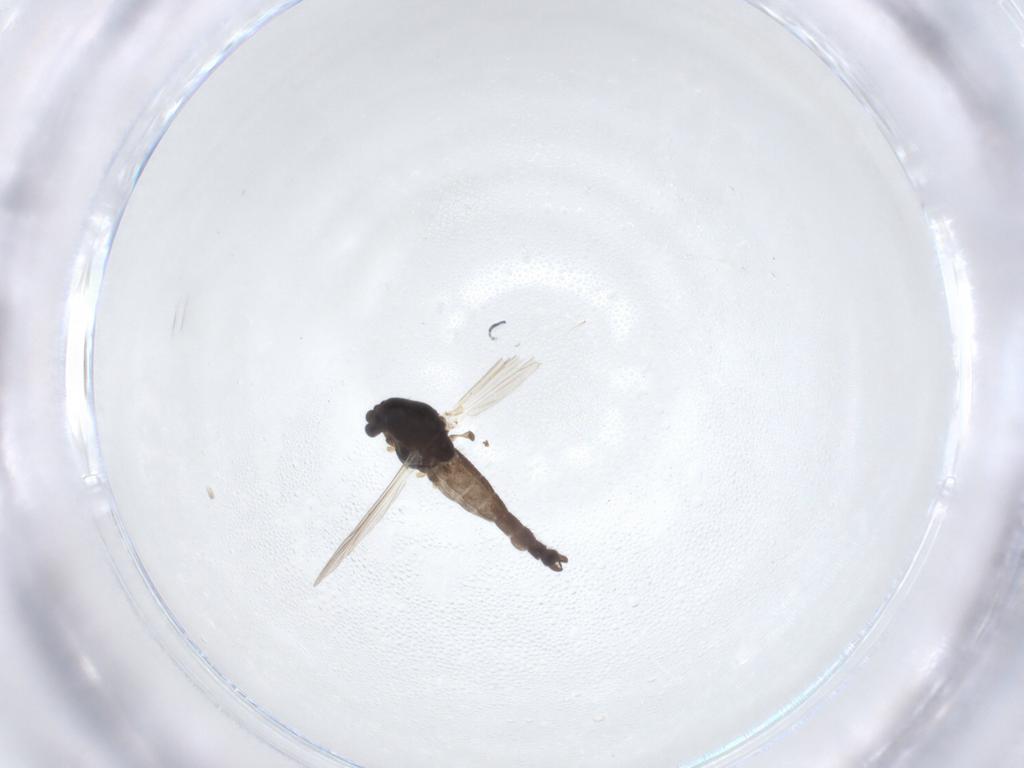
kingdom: Animalia
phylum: Arthropoda
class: Insecta
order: Diptera
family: Chironomidae
